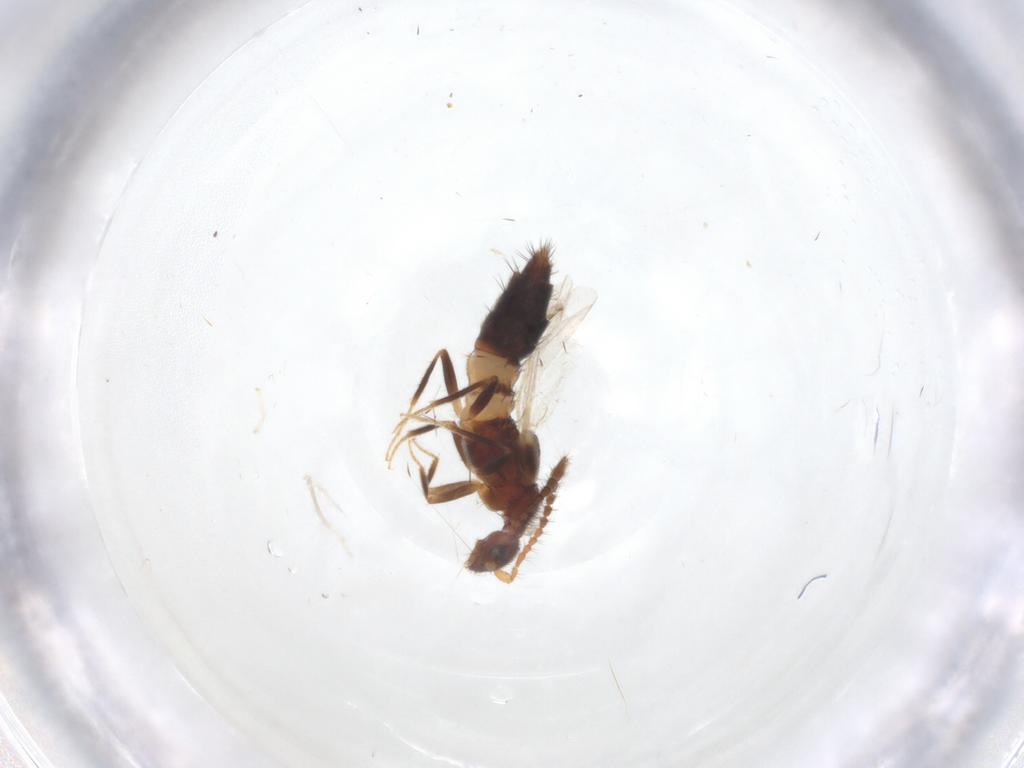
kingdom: Animalia
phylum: Arthropoda
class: Insecta
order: Coleoptera
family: Staphylinidae
